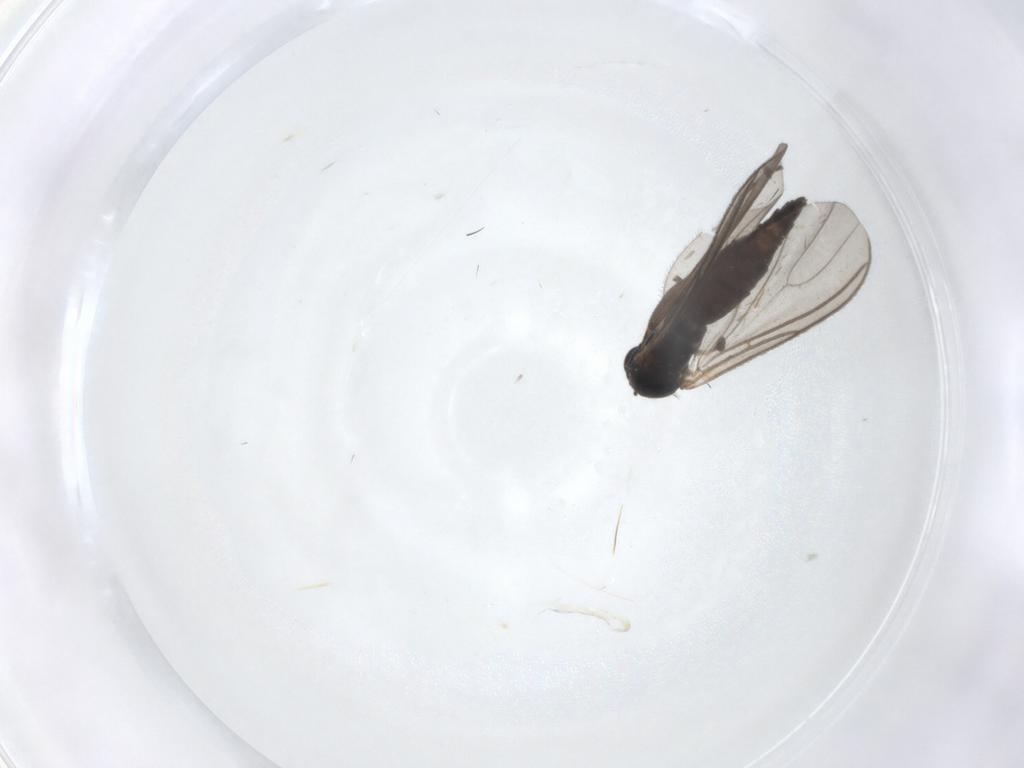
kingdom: Animalia
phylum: Arthropoda
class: Insecta
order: Diptera
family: Sciaridae
